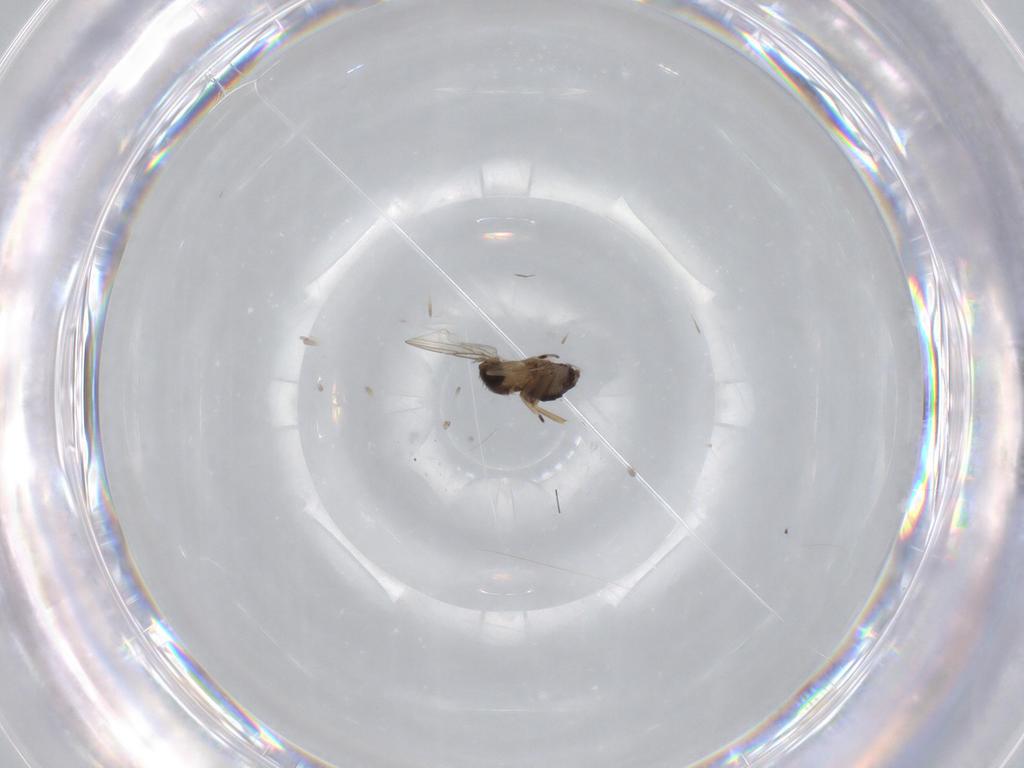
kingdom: Animalia
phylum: Arthropoda
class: Insecta
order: Diptera
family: Phoridae
